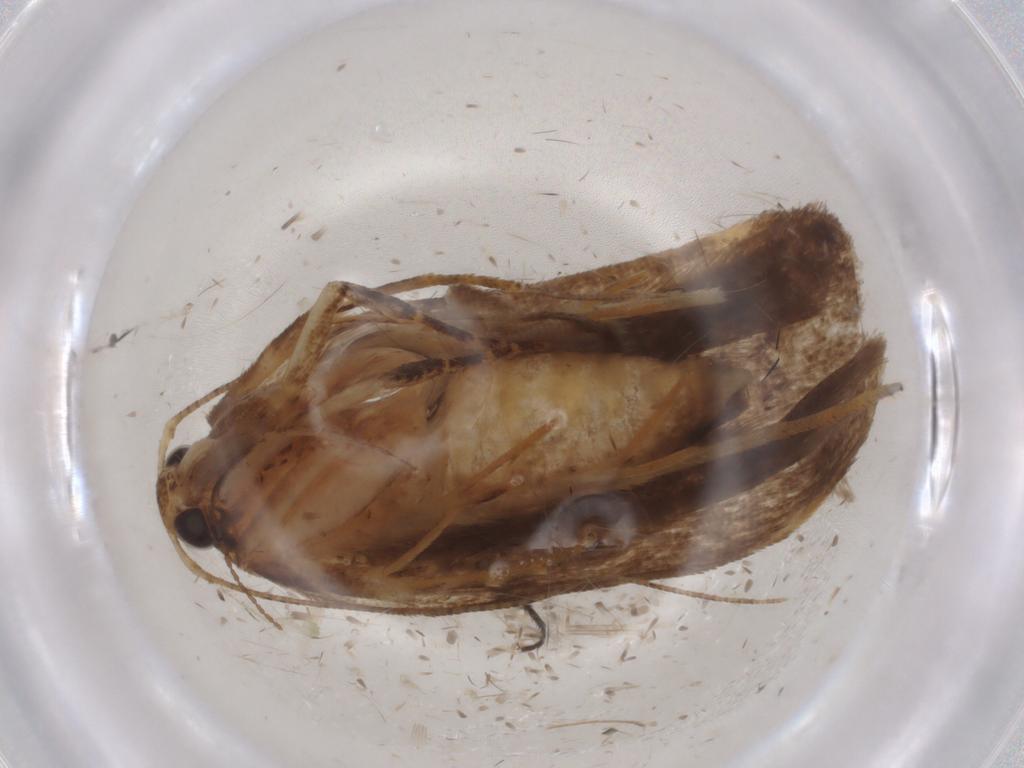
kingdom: Animalia
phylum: Arthropoda
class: Insecta
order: Lepidoptera
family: Gelechiidae
